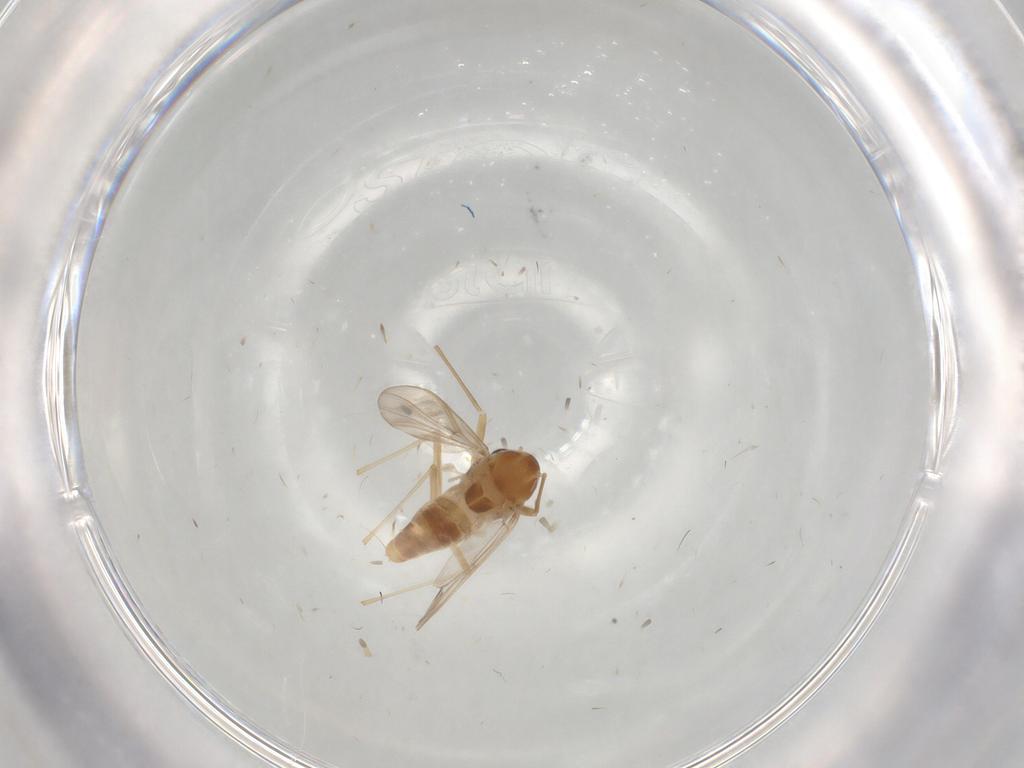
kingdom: Animalia
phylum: Arthropoda
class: Insecta
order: Diptera
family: Chironomidae
